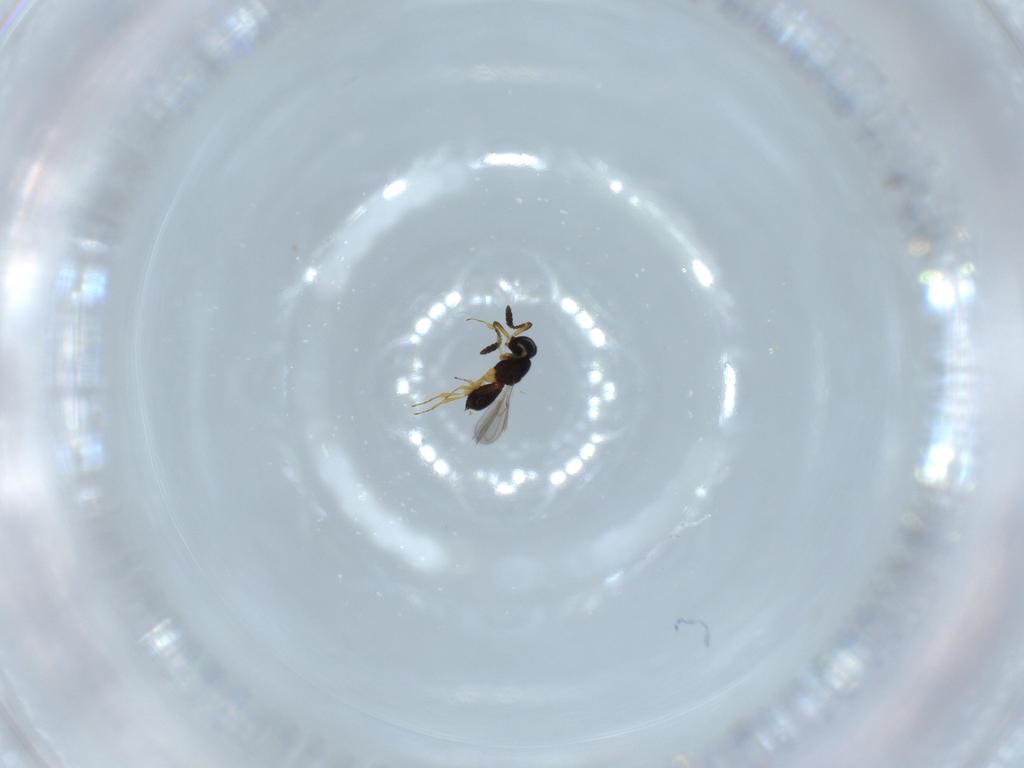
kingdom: Animalia
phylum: Arthropoda
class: Insecta
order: Hymenoptera
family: Scelionidae
